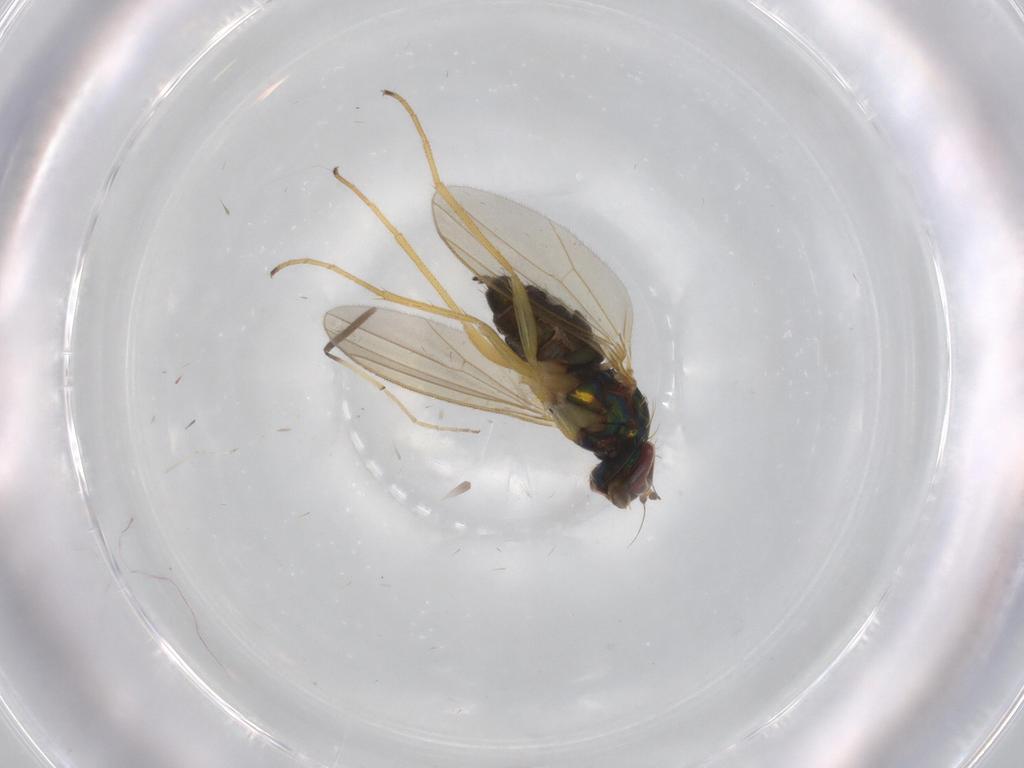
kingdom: Animalia
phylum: Arthropoda
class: Insecta
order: Diptera
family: Dolichopodidae
